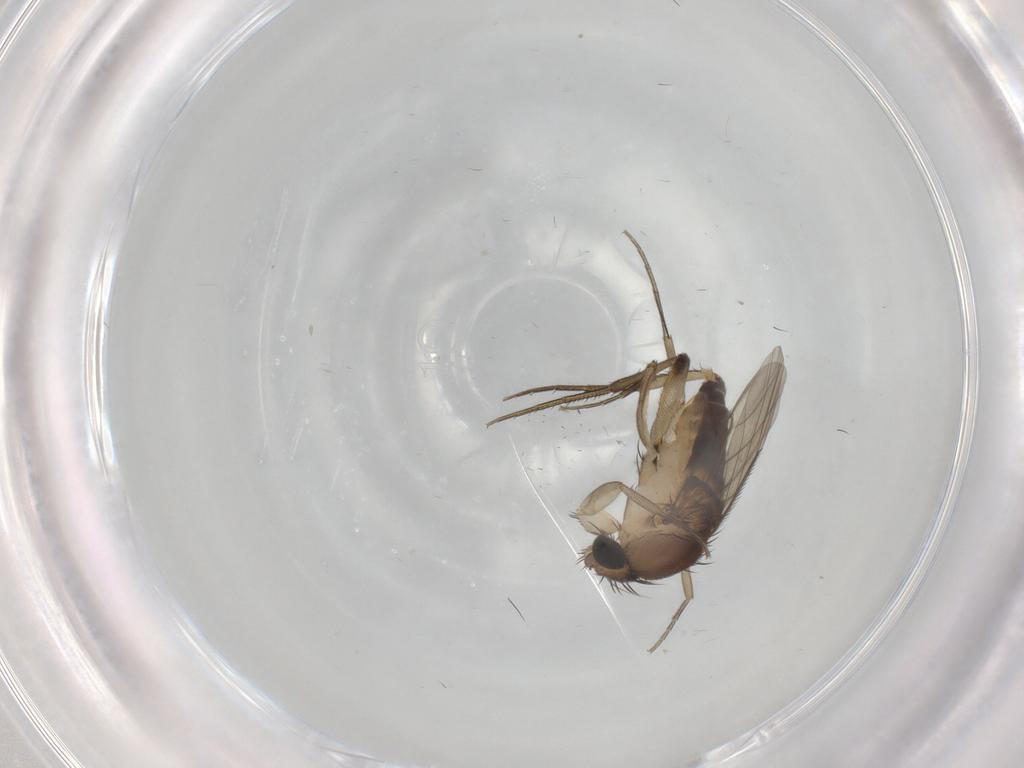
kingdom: Animalia
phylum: Arthropoda
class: Insecta
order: Diptera
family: Phoridae
